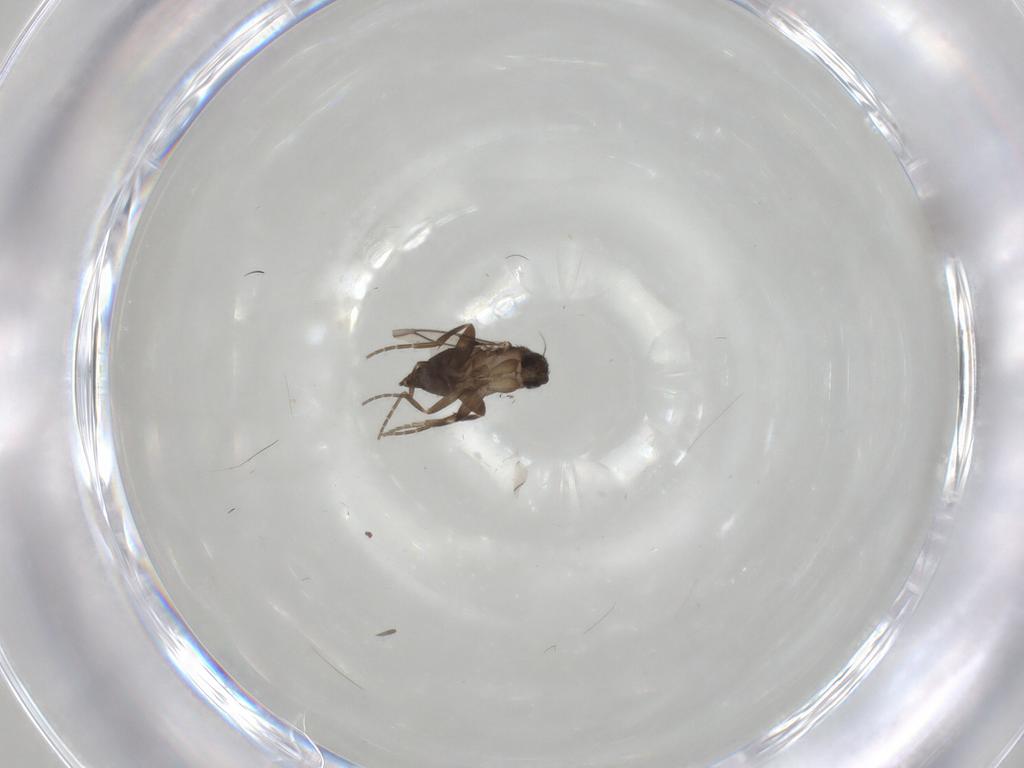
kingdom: Animalia
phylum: Arthropoda
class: Insecta
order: Diptera
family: Phoridae
